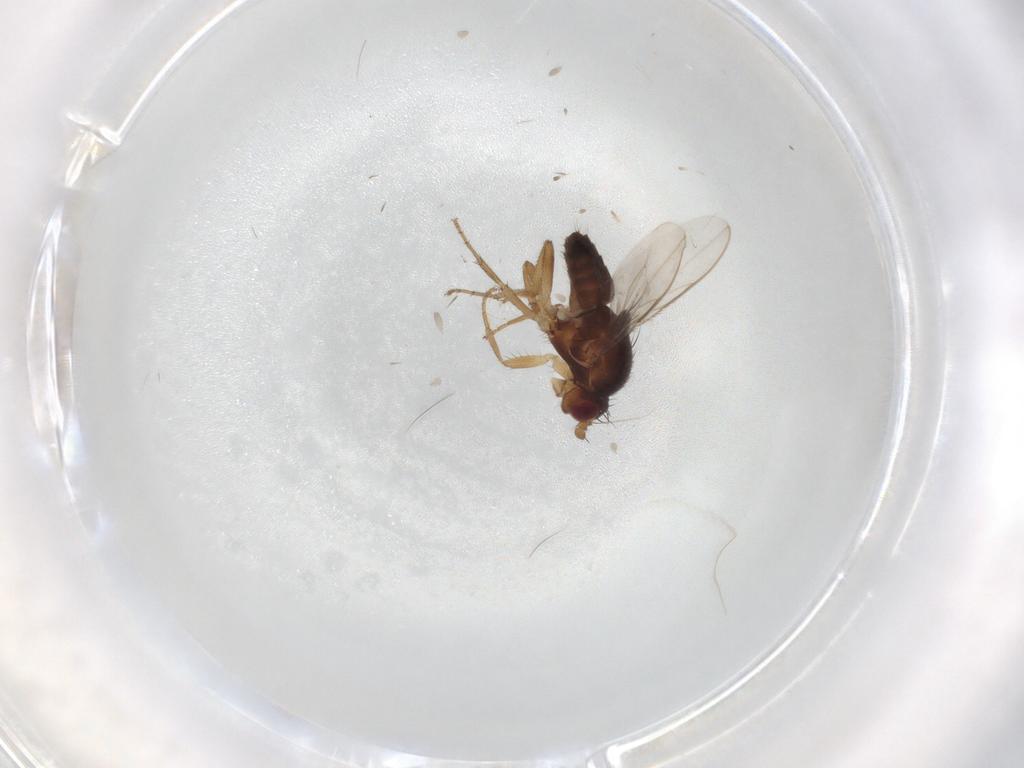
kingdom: Animalia
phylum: Arthropoda
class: Insecta
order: Diptera
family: Sphaeroceridae
